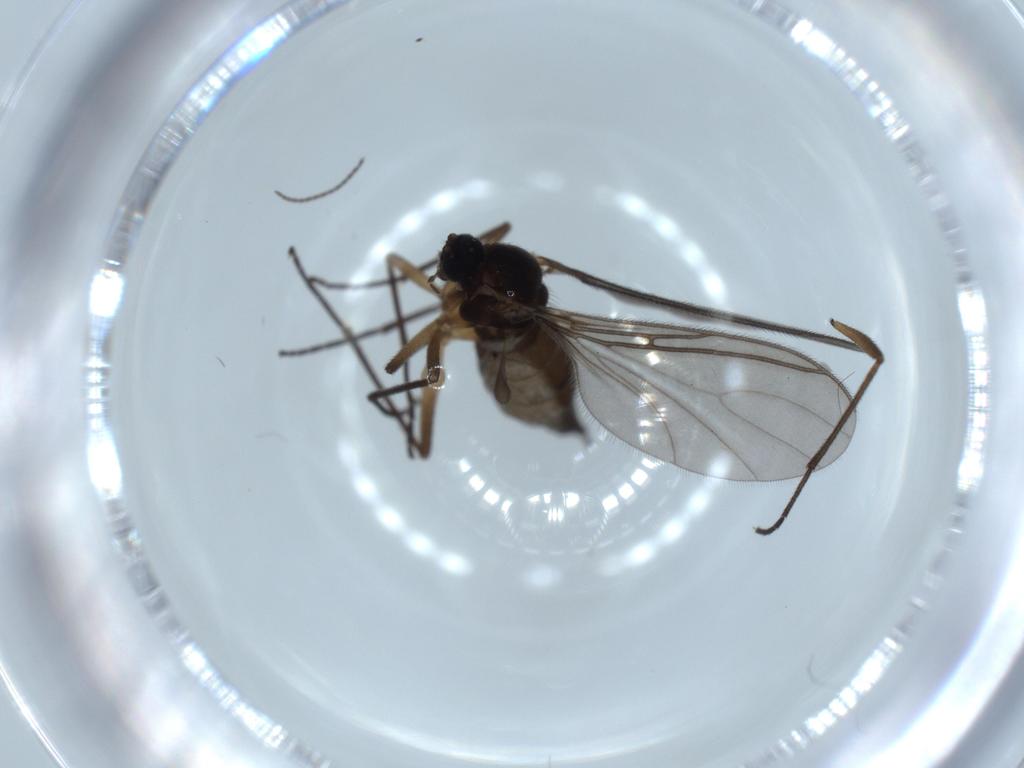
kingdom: Animalia
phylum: Arthropoda
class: Insecta
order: Diptera
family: Sciaridae
